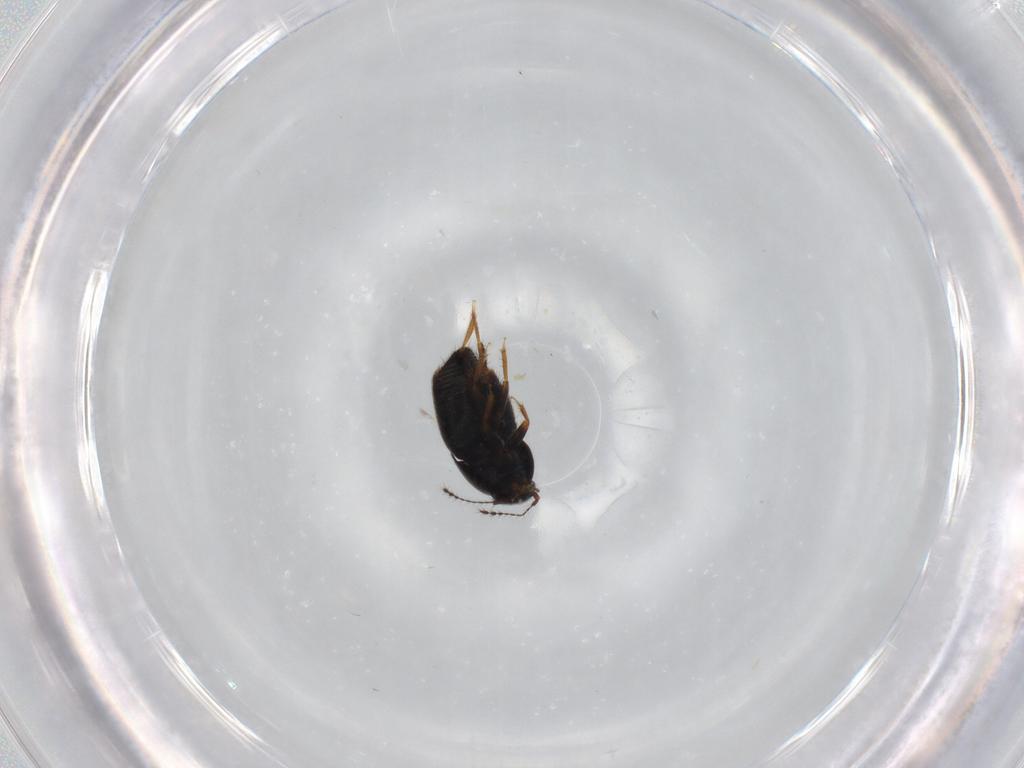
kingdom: Animalia
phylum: Arthropoda
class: Insecta
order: Coleoptera
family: Ptiliidae
